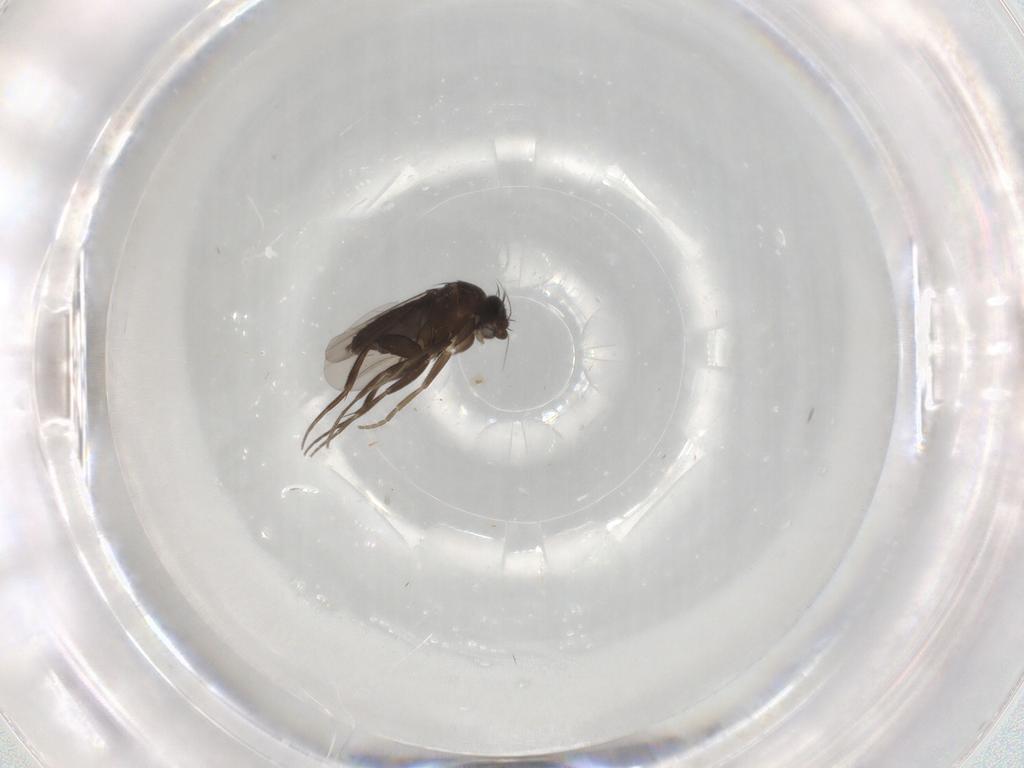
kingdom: Animalia
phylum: Arthropoda
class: Insecta
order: Diptera
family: Phoridae
